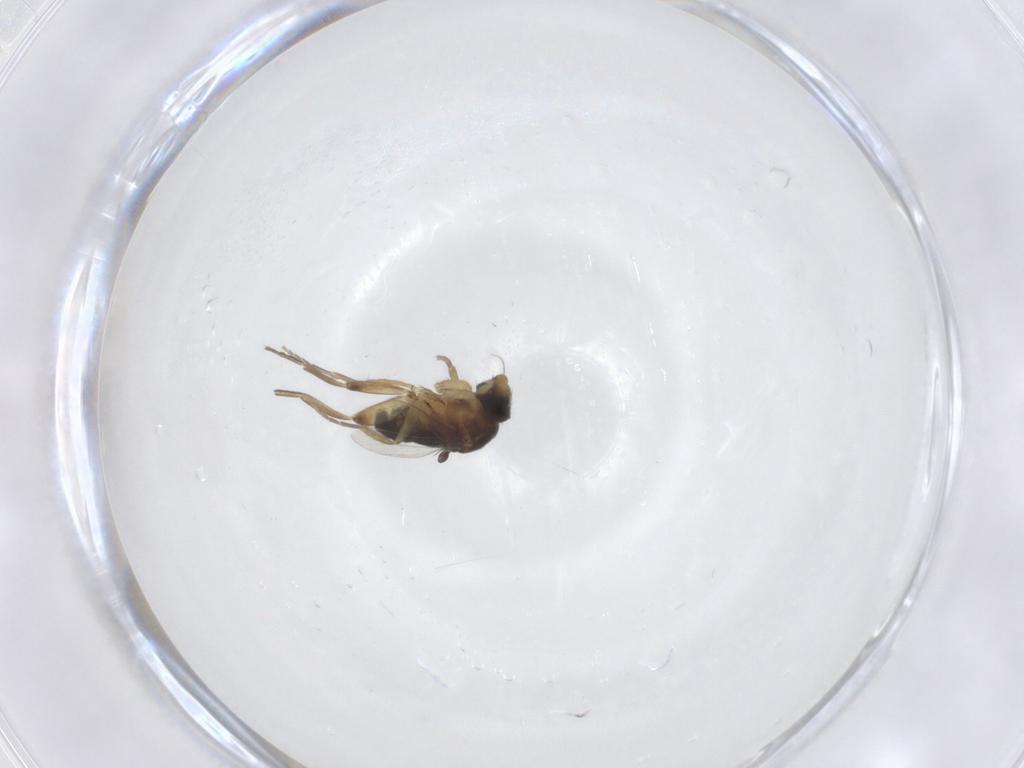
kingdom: Animalia
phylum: Arthropoda
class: Insecta
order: Diptera
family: Phoridae
